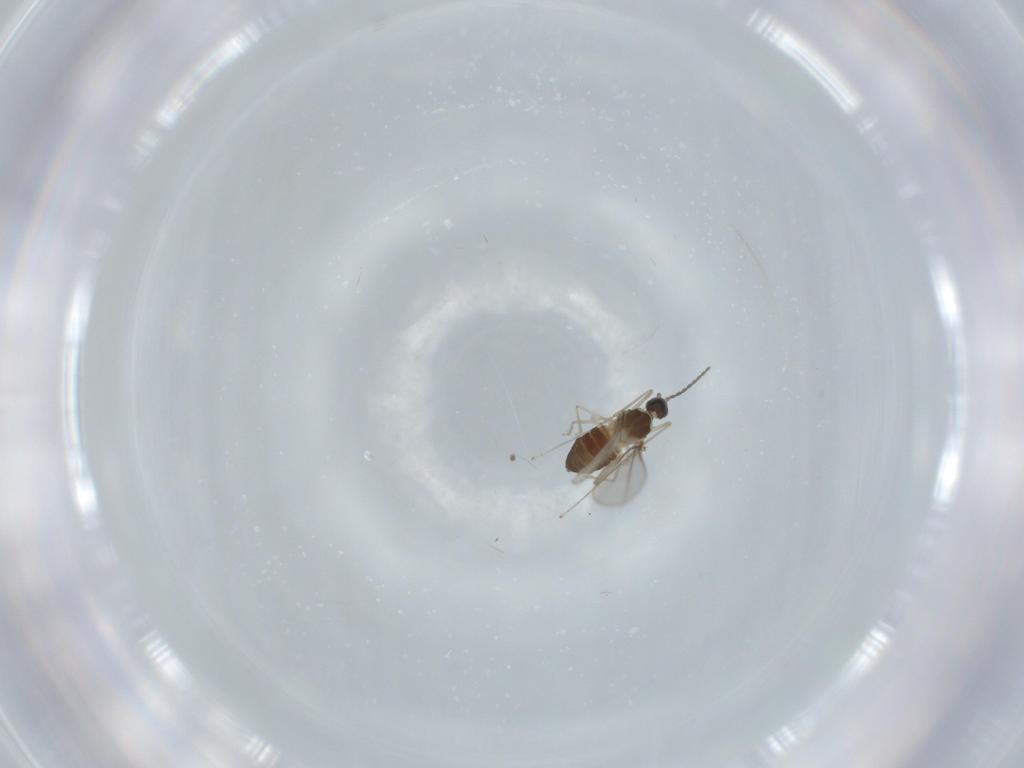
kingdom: Animalia
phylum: Arthropoda
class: Insecta
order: Diptera
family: Cecidomyiidae
